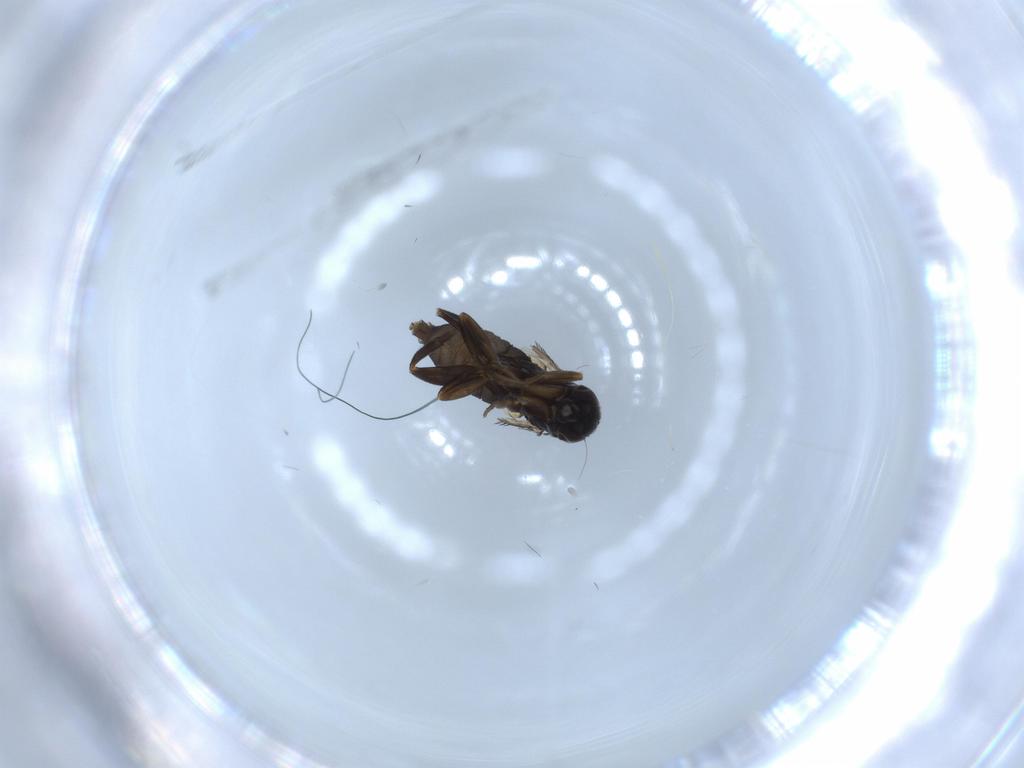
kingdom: Animalia
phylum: Arthropoda
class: Insecta
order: Diptera
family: Phoridae
